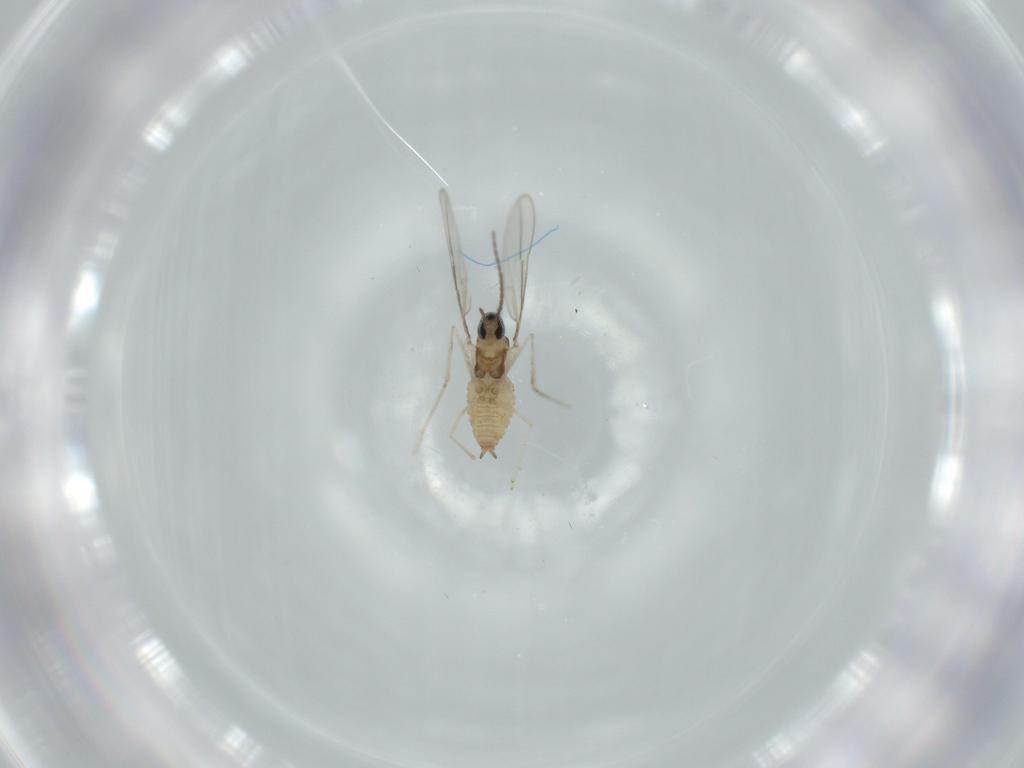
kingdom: Animalia
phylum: Arthropoda
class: Insecta
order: Diptera
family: Cecidomyiidae
